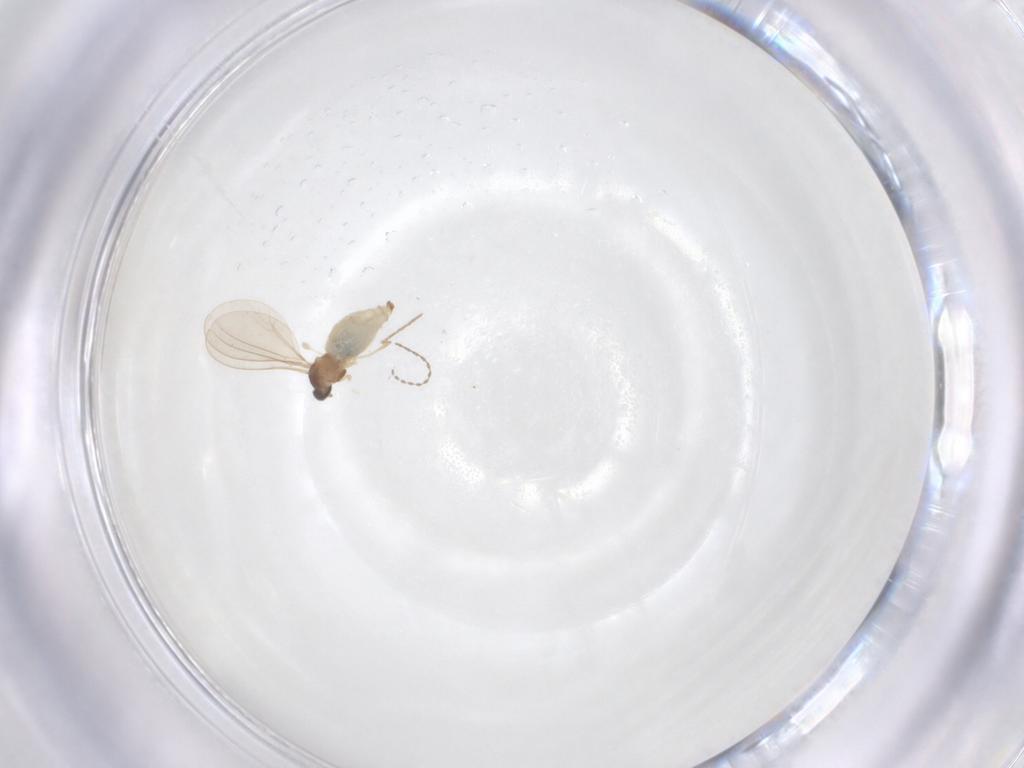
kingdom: Animalia
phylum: Arthropoda
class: Insecta
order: Diptera
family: Cecidomyiidae
